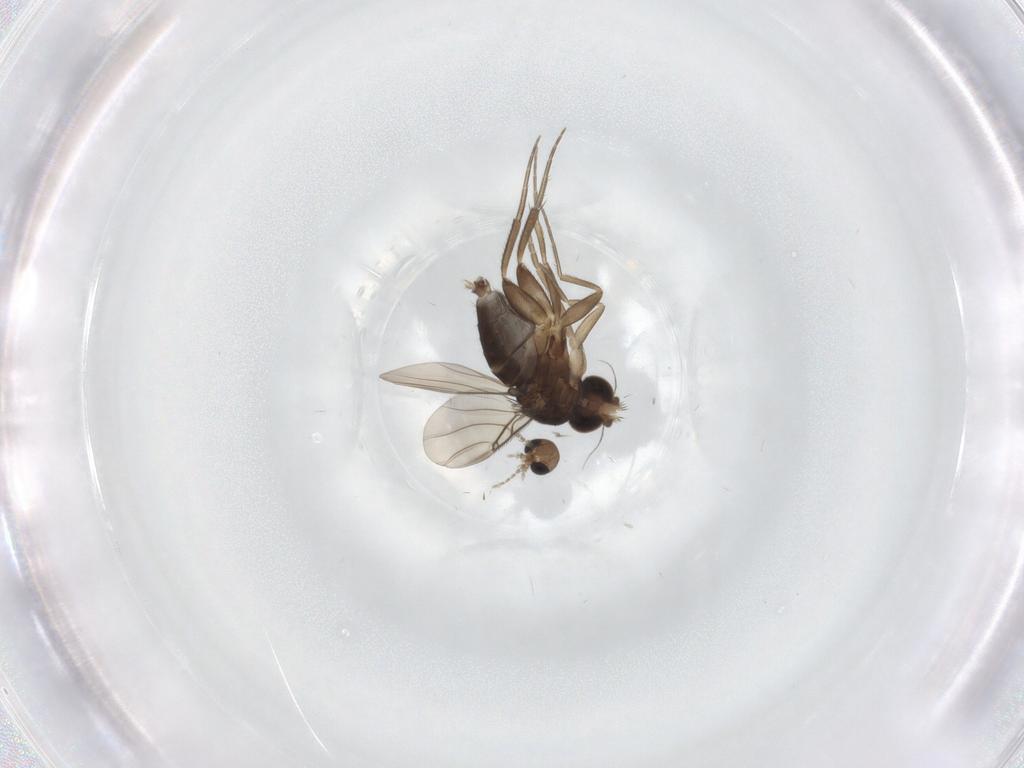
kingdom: Animalia
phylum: Arthropoda
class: Insecta
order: Diptera
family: Phoridae
